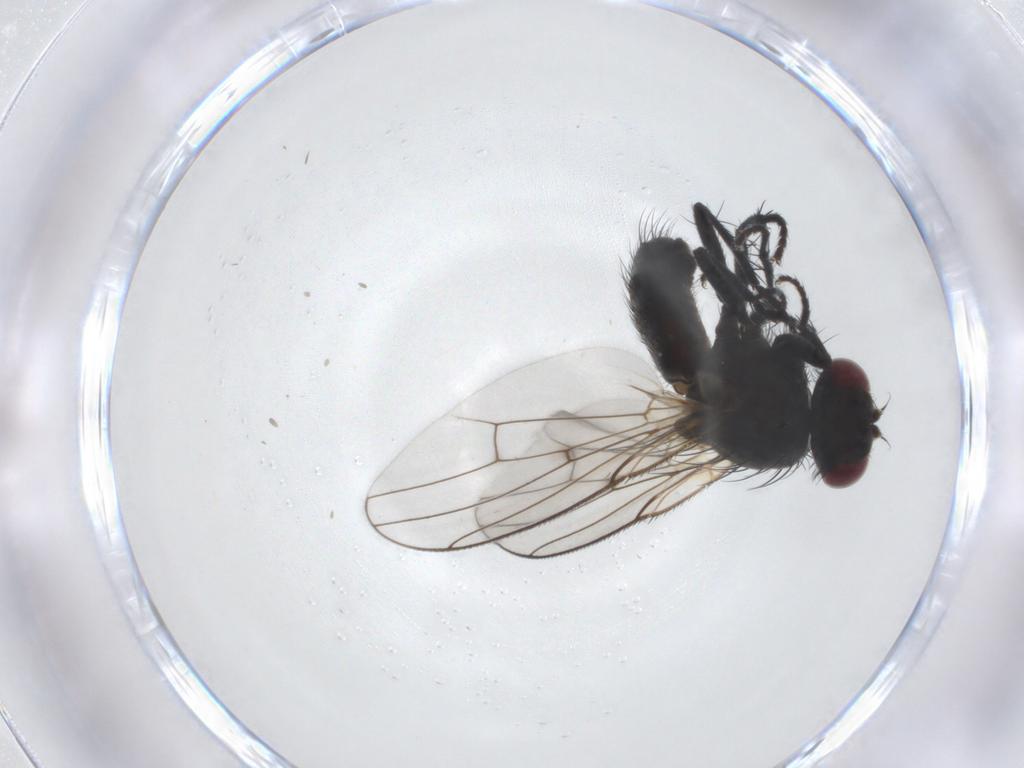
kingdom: Animalia
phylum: Arthropoda
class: Insecta
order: Diptera
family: Muscidae
